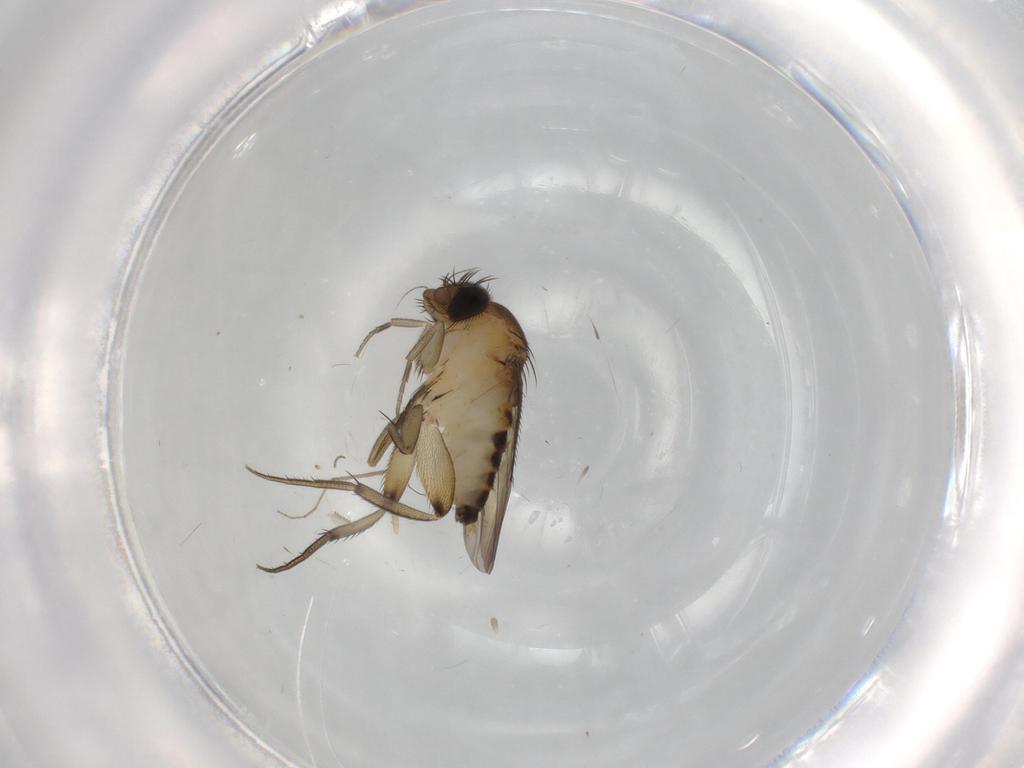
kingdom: Animalia
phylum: Arthropoda
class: Insecta
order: Diptera
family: Phoridae
